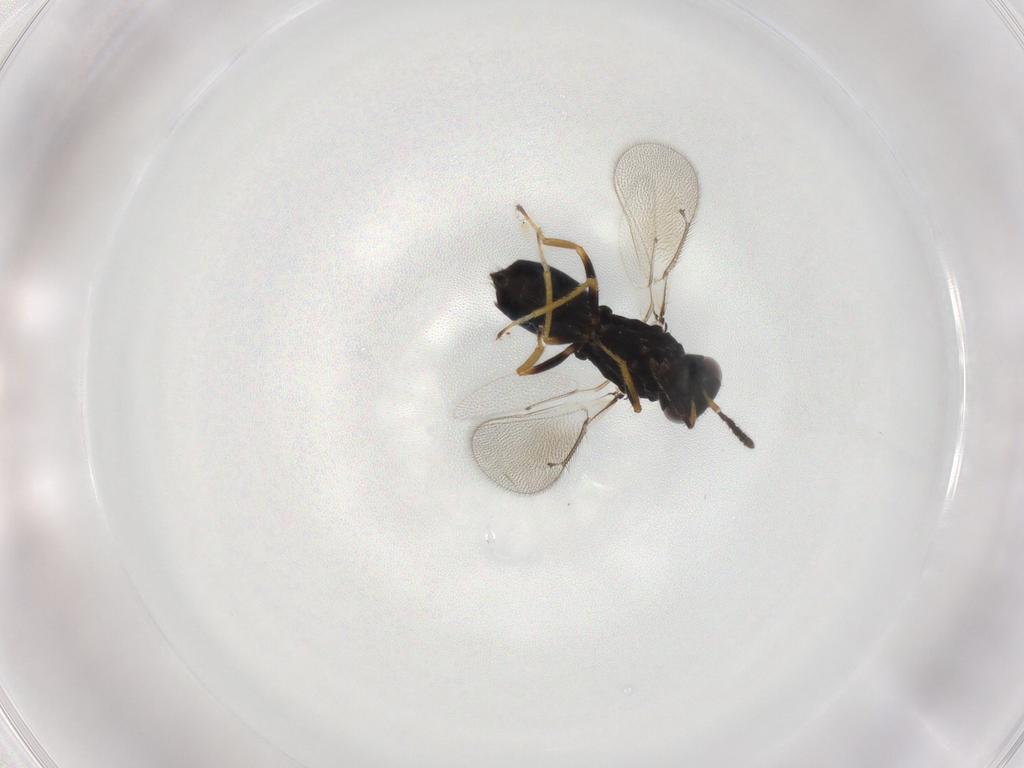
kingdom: Animalia
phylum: Arthropoda
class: Insecta
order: Hymenoptera
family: Eulophidae
